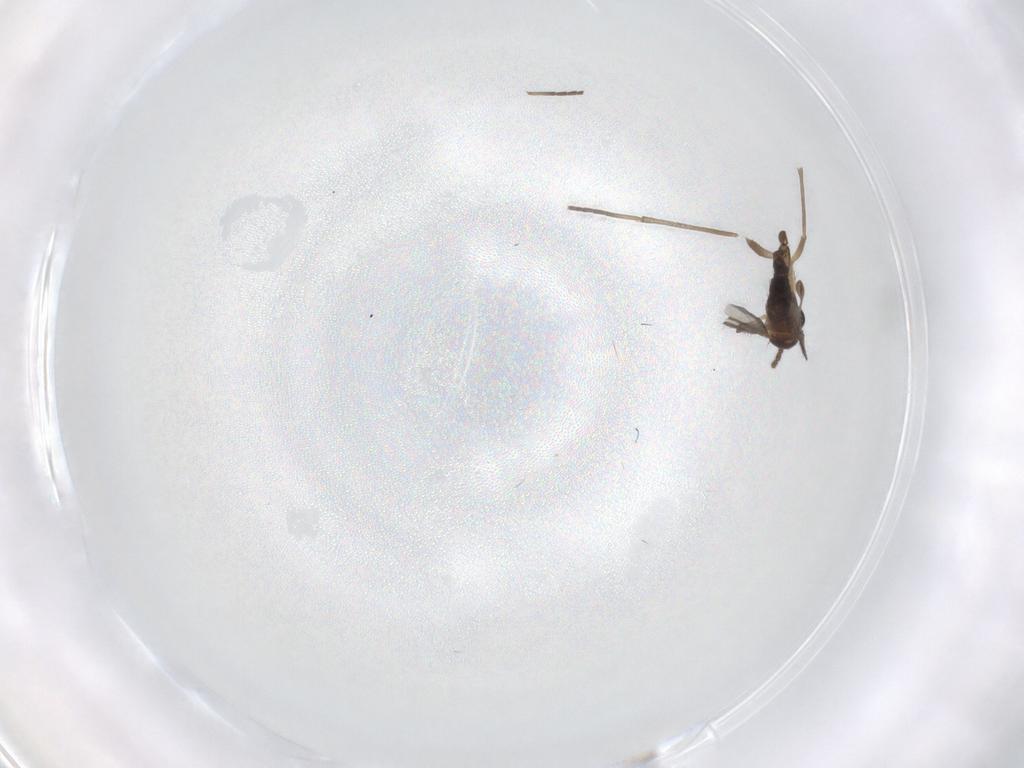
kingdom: Animalia
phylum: Arthropoda
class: Insecta
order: Diptera
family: Sciaridae
